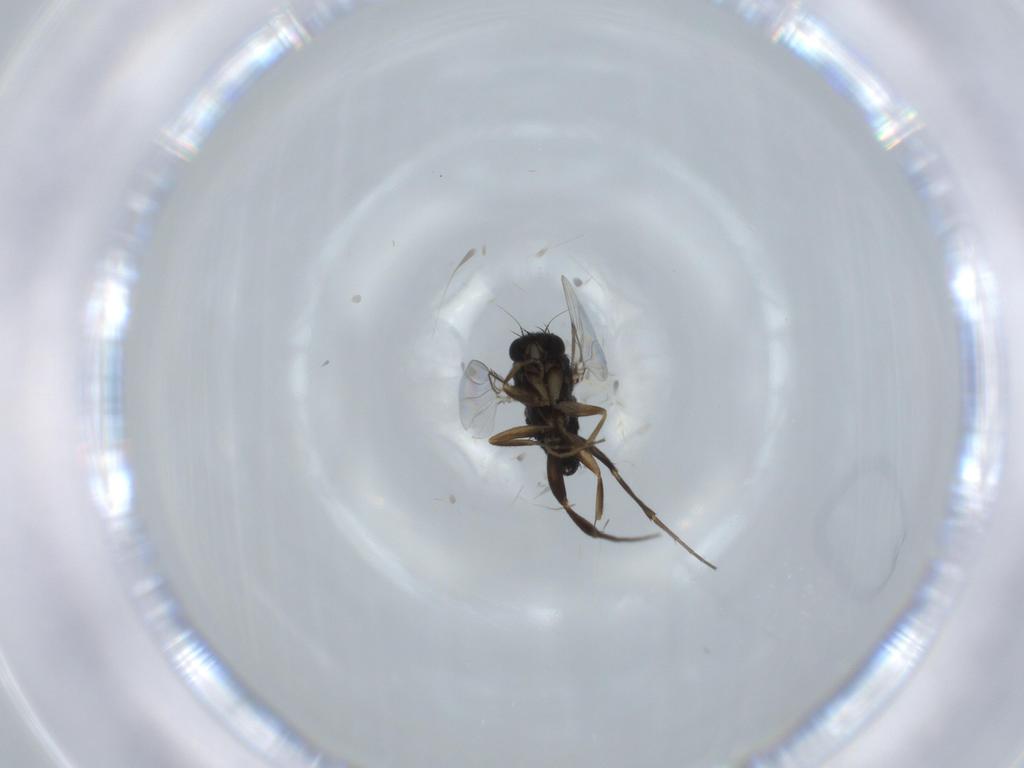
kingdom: Animalia
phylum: Arthropoda
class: Insecta
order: Diptera
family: Phoridae
